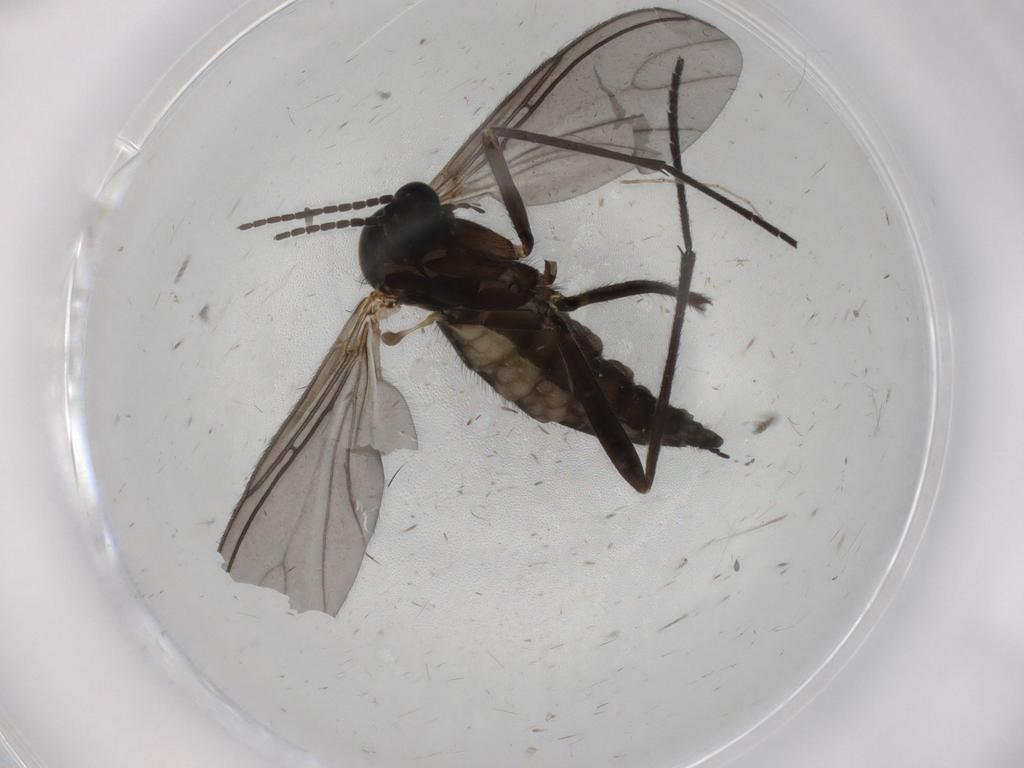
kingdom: Animalia
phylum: Arthropoda
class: Insecta
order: Diptera
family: Sciaridae
